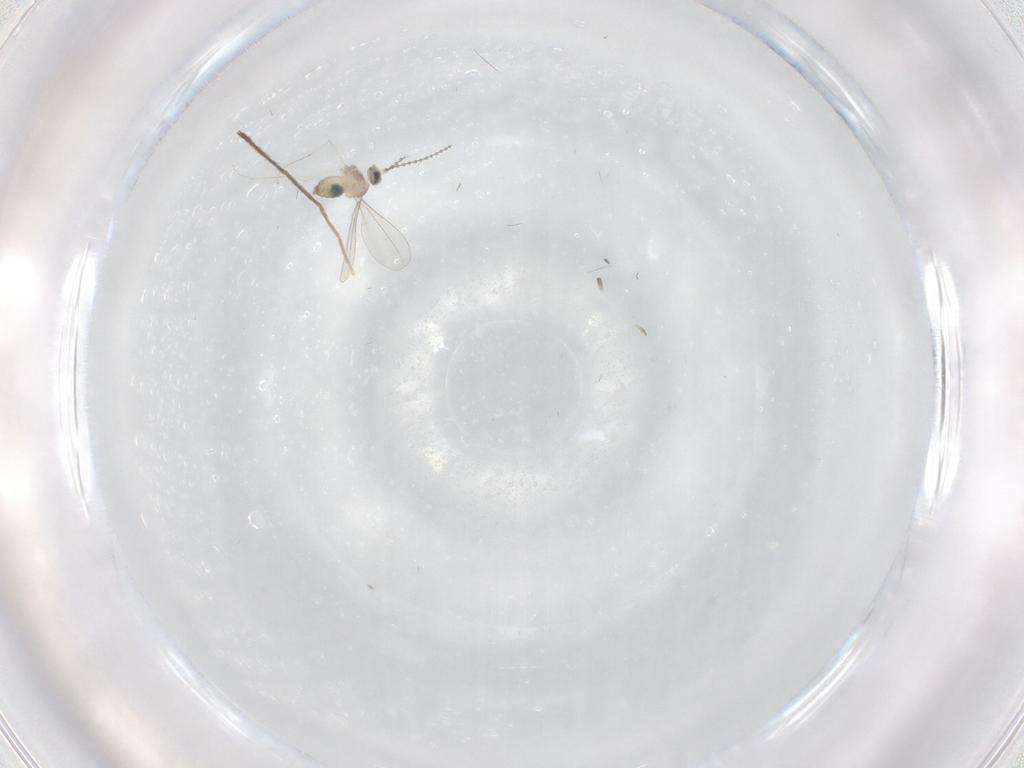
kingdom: Animalia
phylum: Arthropoda
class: Insecta
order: Diptera
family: Cecidomyiidae
